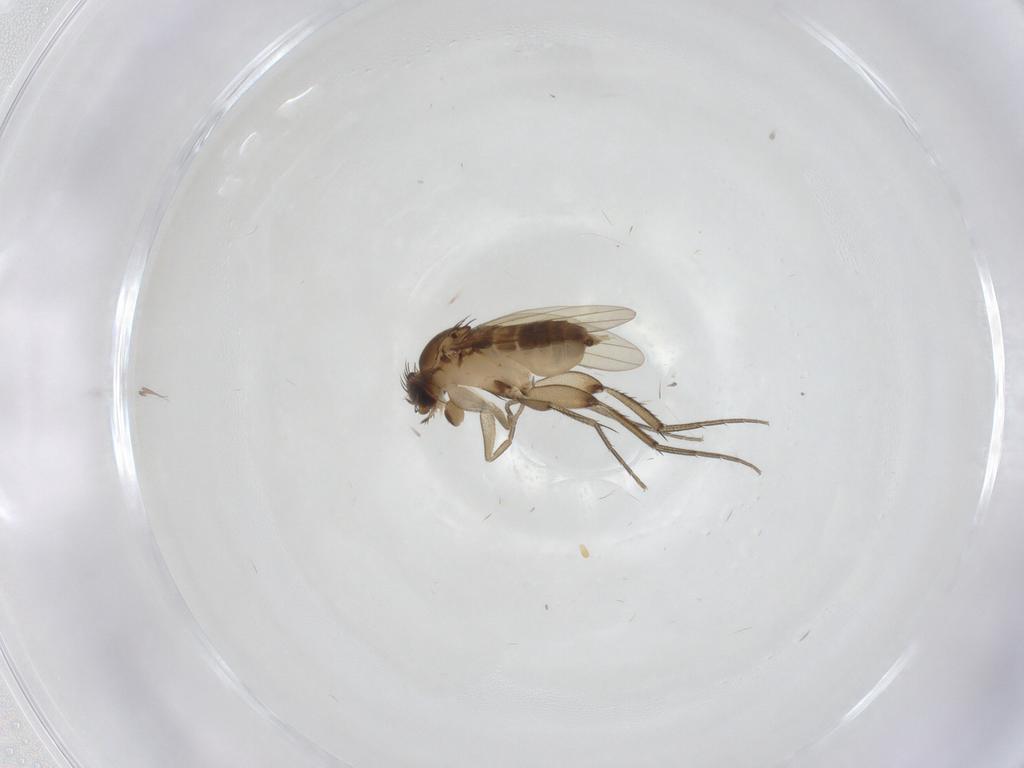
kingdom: Animalia
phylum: Arthropoda
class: Insecta
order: Diptera
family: Phoridae
